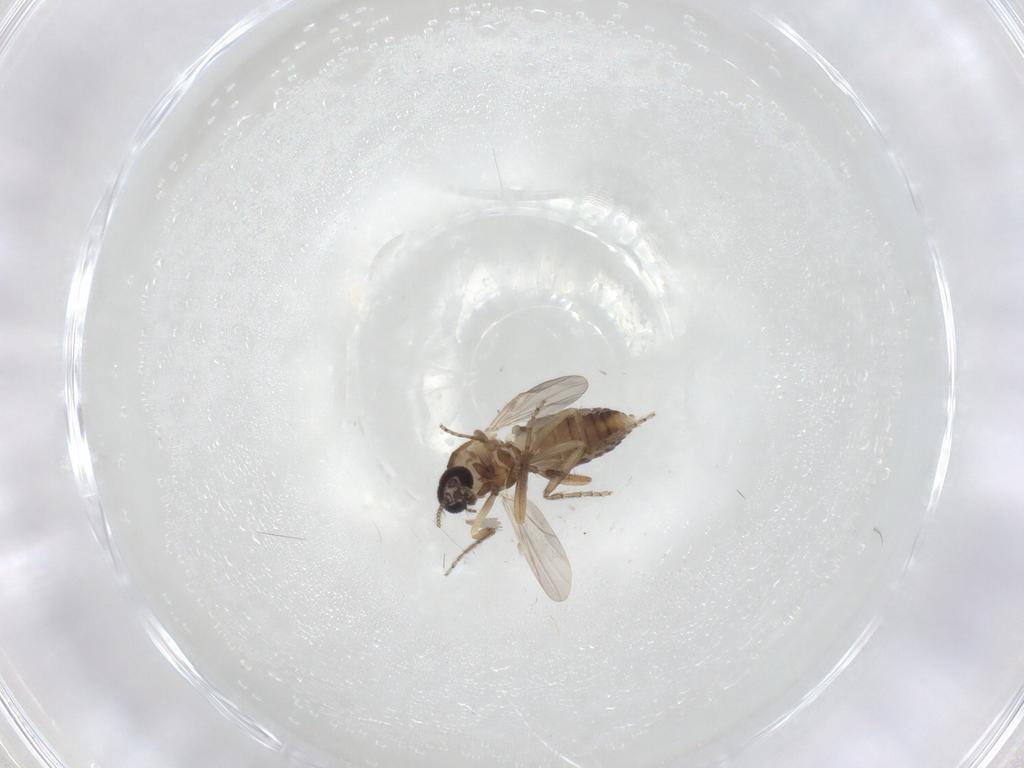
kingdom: Animalia
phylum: Arthropoda
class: Insecta
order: Diptera
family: Ceratopogonidae
